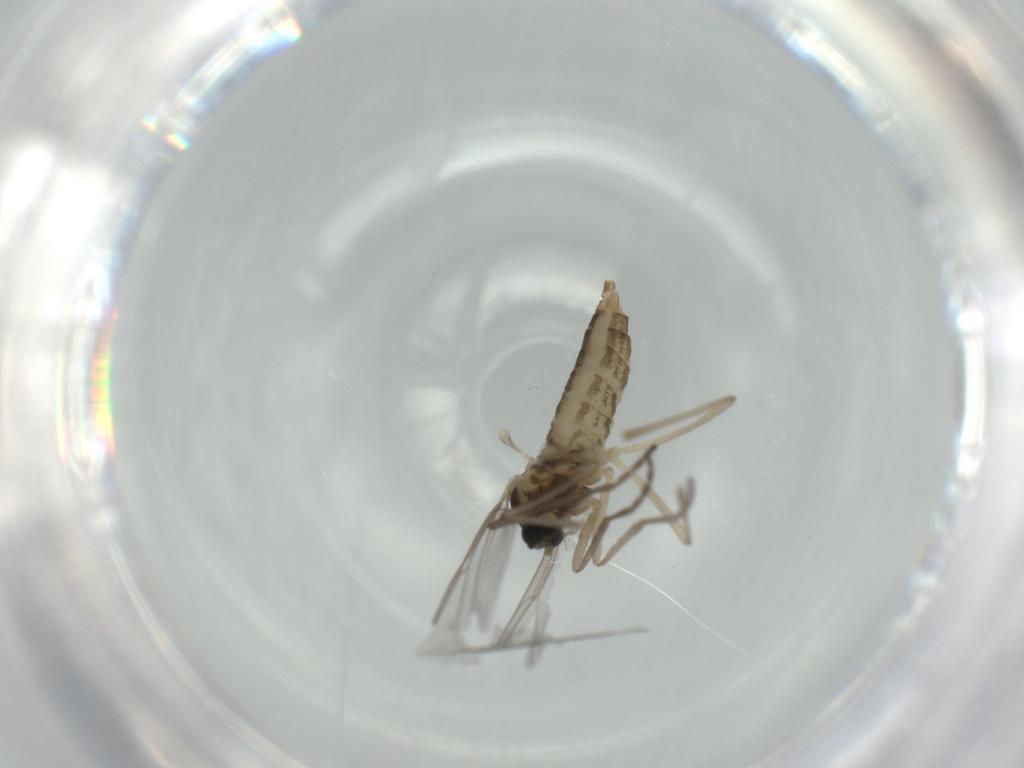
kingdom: Animalia
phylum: Arthropoda
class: Insecta
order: Diptera
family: Cecidomyiidae
